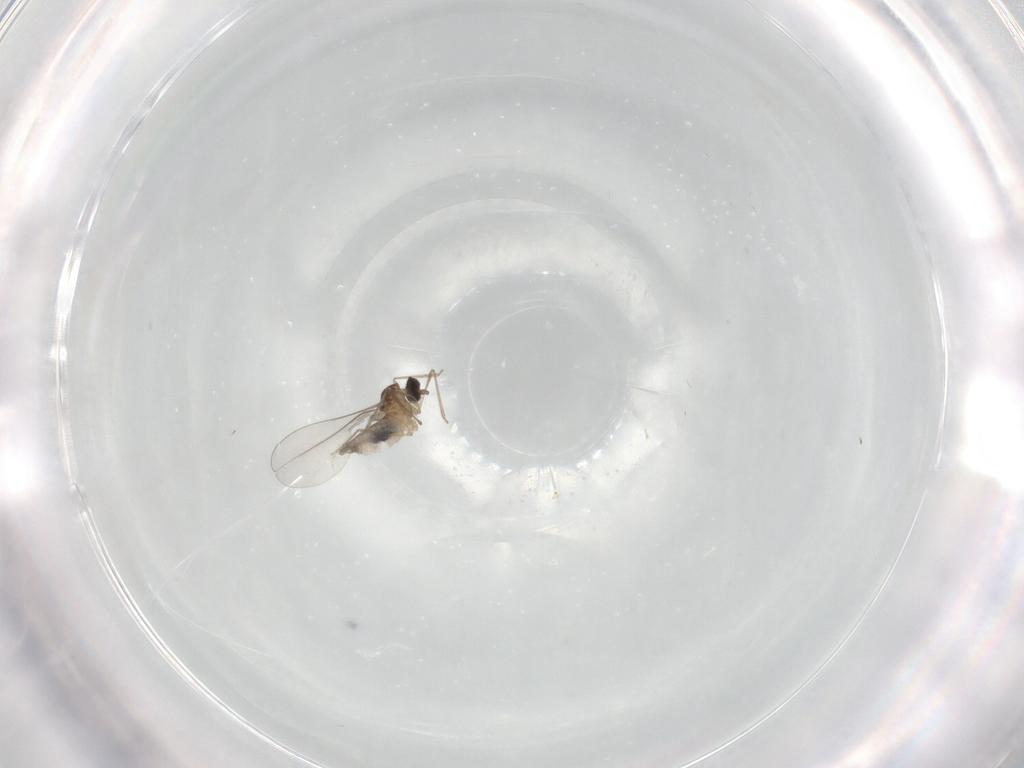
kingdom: Animalia
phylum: Arthropoda
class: Insecta
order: Diptera
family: Cecidomyiidae
